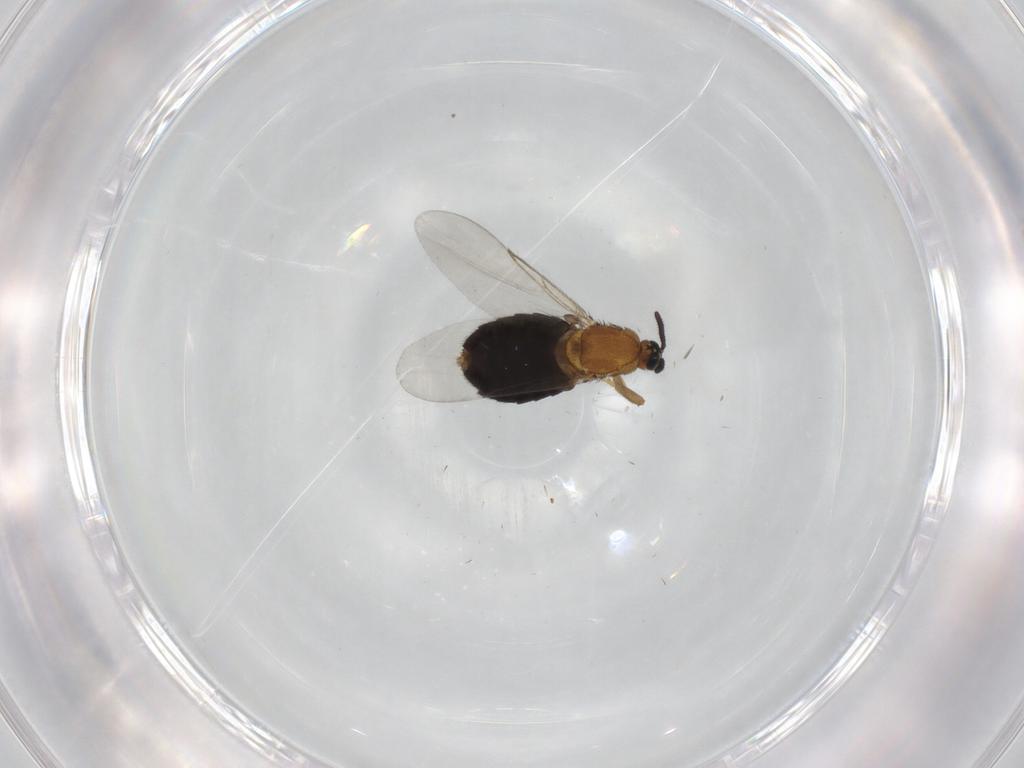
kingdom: Animalia
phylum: Arthropoda
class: Insecta
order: Diptera
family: Scatopsidae
